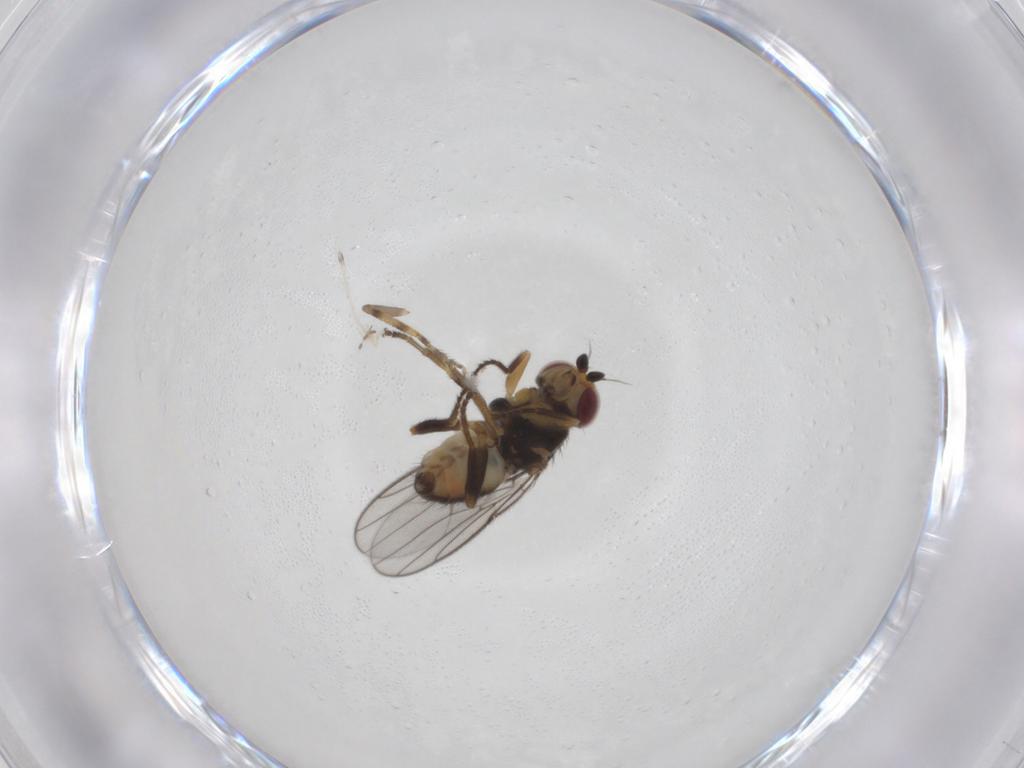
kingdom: Animalia
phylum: Arthropoda
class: Insecta
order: Diptera
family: Chloropidae
